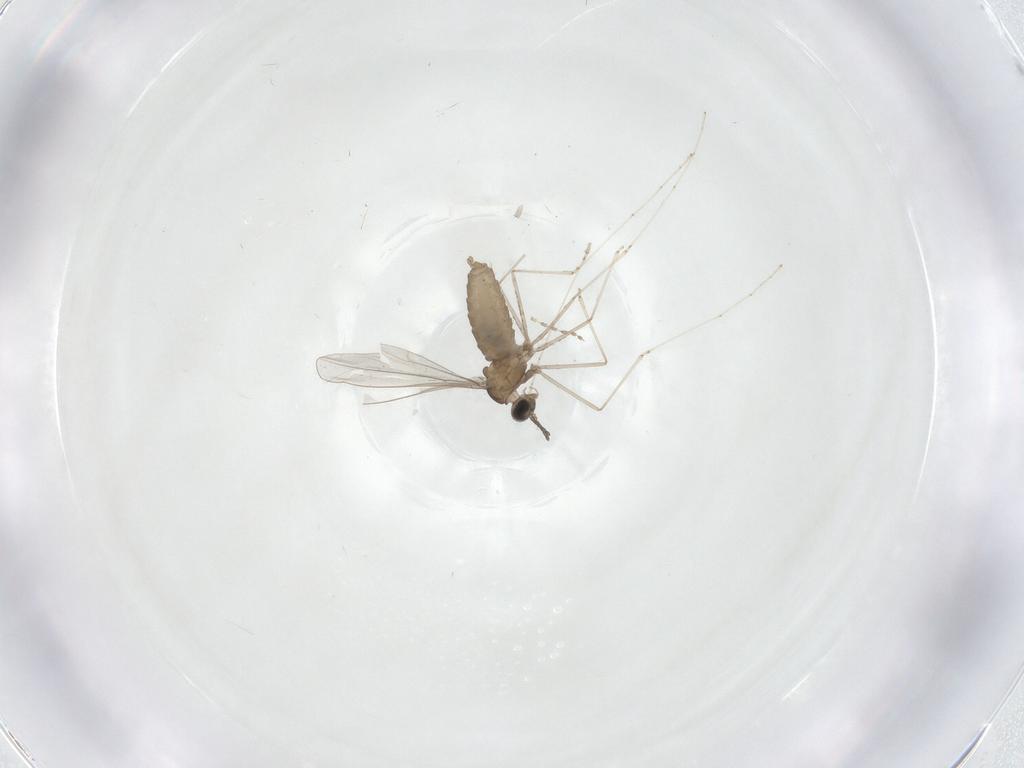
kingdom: Animalia
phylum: Arthropoda
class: Insecta
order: Diptera
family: Cecidomyiidae
